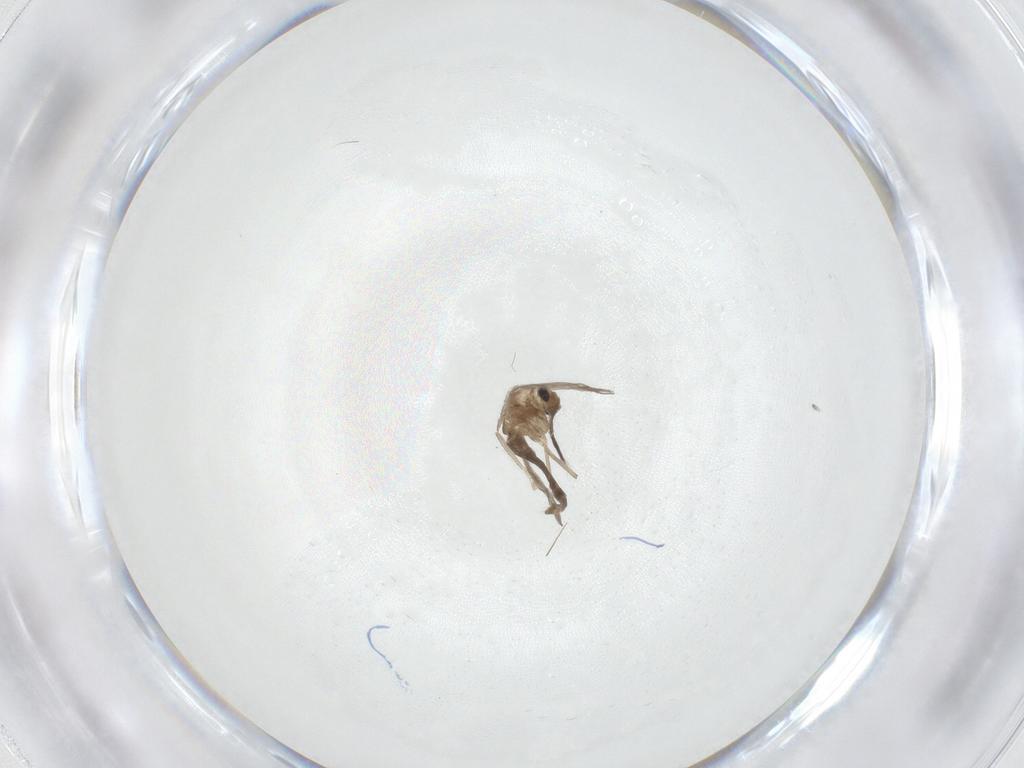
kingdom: Animalia
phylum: Arthropoda
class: Insecta
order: Diptera
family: Sciaridae
